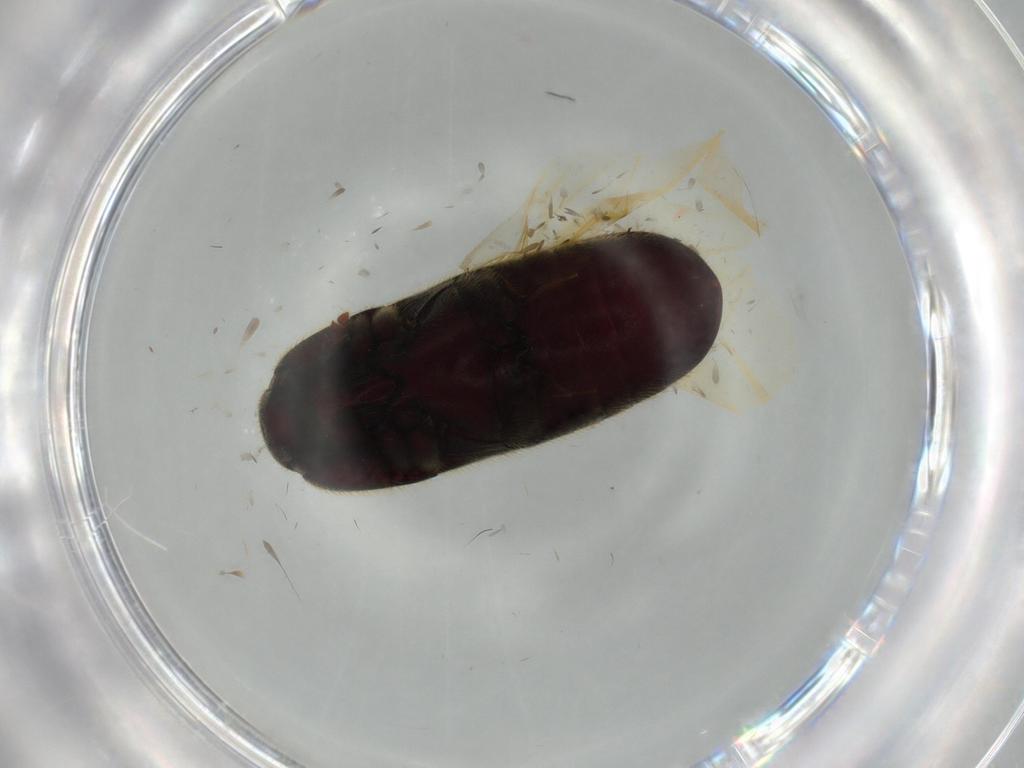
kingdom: Animalia
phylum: Arthropoda
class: Insecta
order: Coleoptera
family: Throscidae
